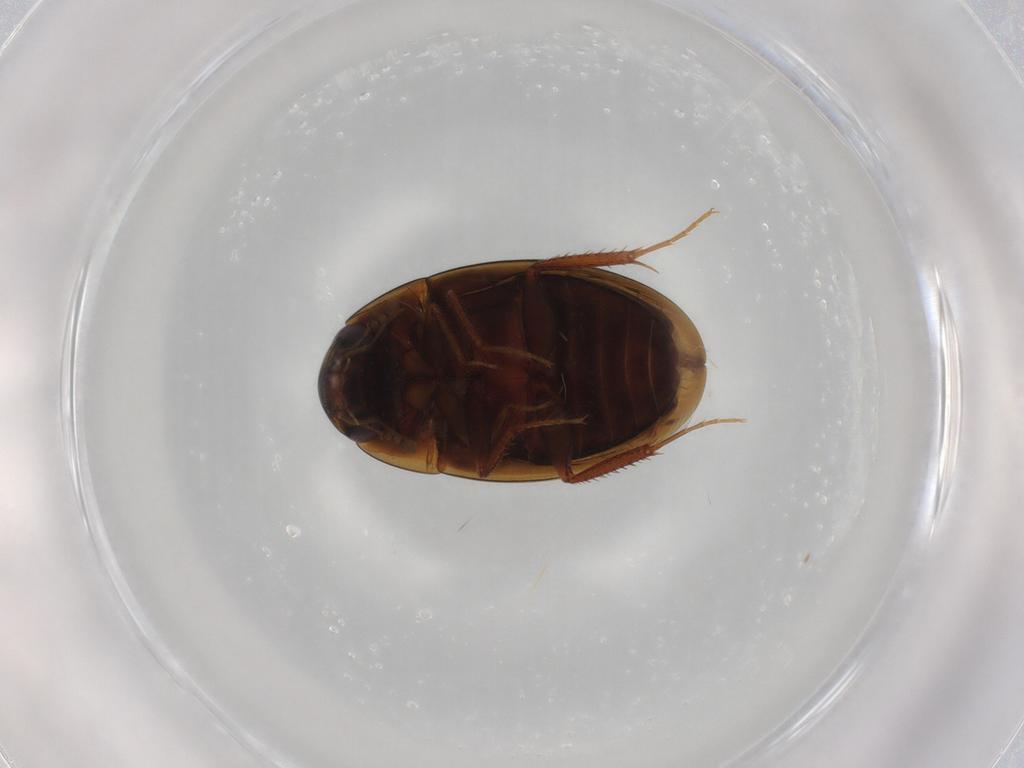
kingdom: Animalia
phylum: Arthropoda
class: Insecta
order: Coleoptera
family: Hydrophilidae
